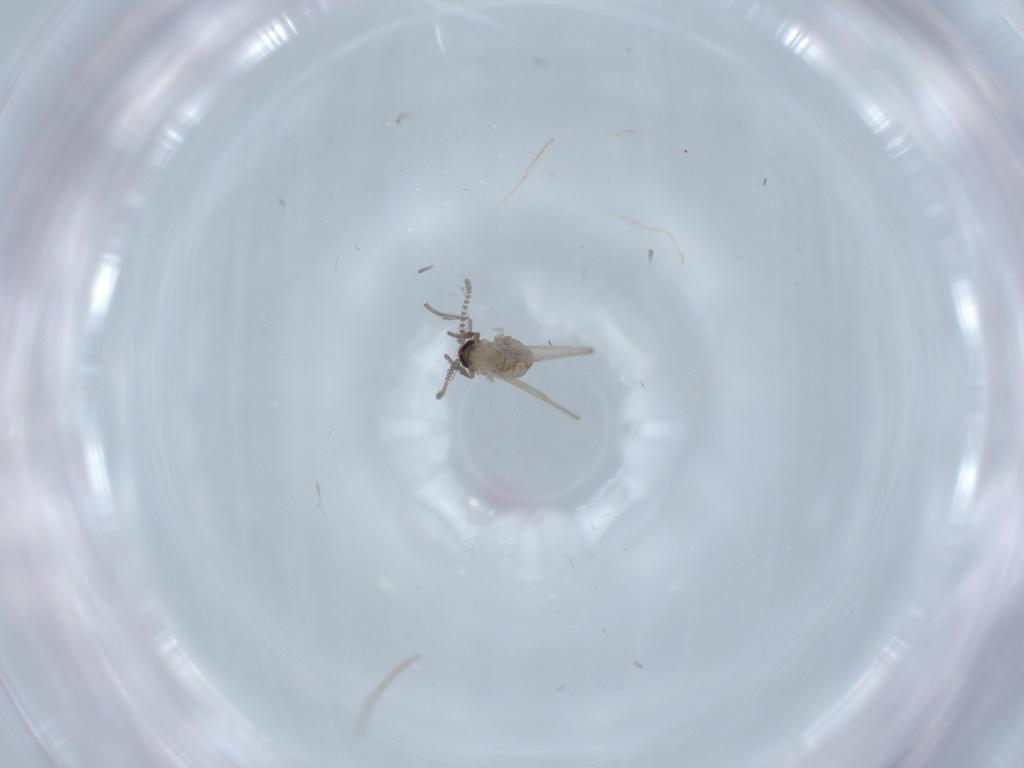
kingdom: Animalia
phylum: Arthropoda
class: Insecta
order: Diptera
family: Psychodidae
